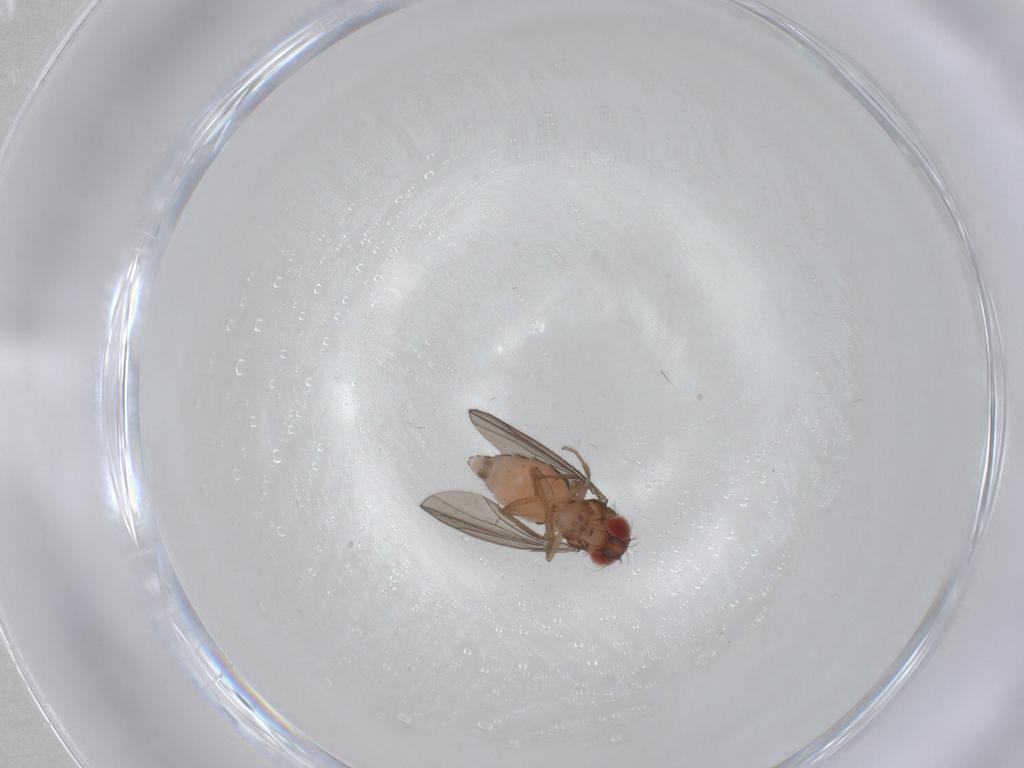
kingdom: Animalia
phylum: Arthropoda
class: Insecta
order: Diptera
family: Drosophilidae
